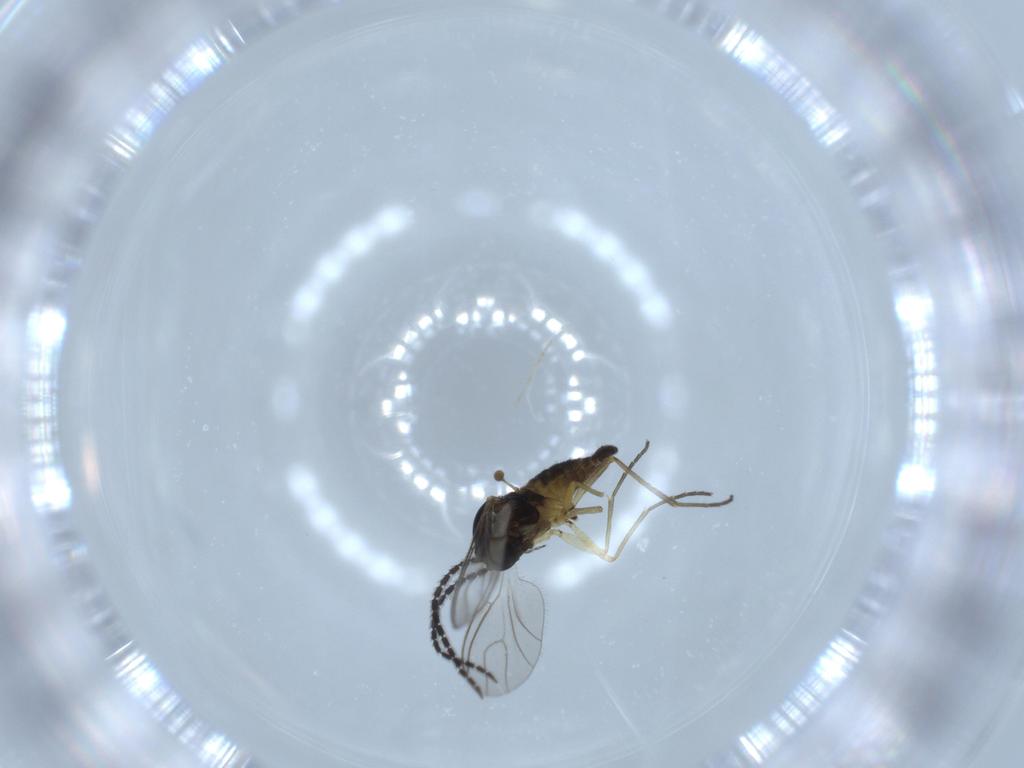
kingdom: Animalia
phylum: Arthropoda
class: Insecta
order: Diptera
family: Sciaridae
